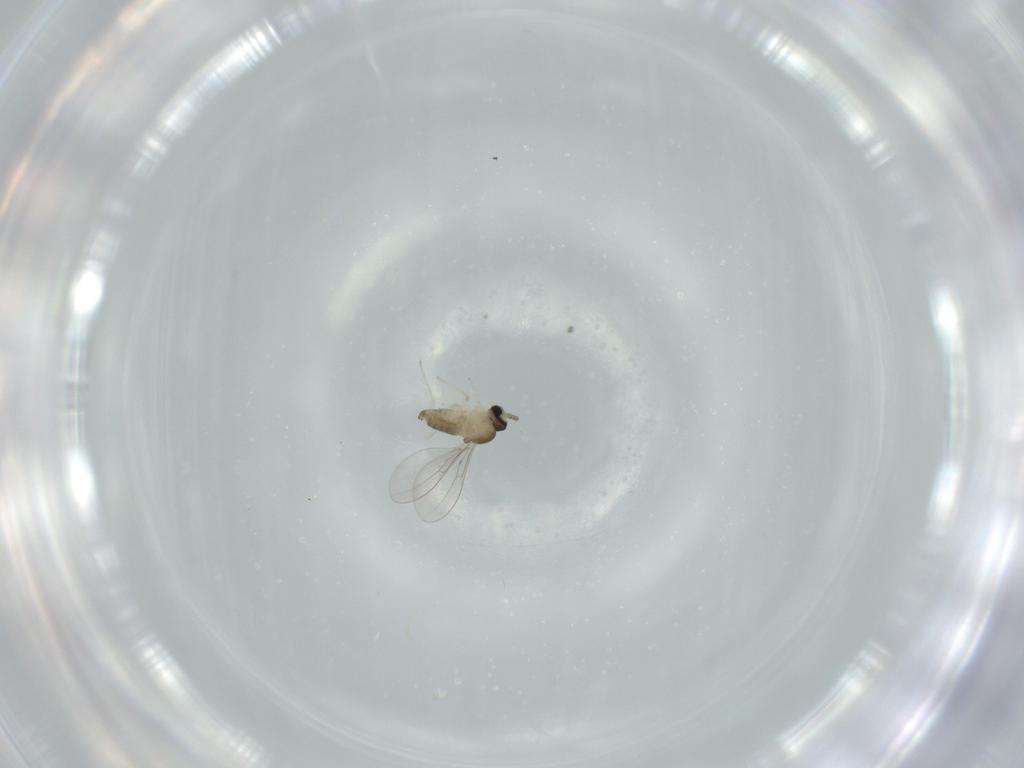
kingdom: Animalia
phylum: Arthropoda
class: Insecta
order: Diptera
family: Cecidomyiidae
